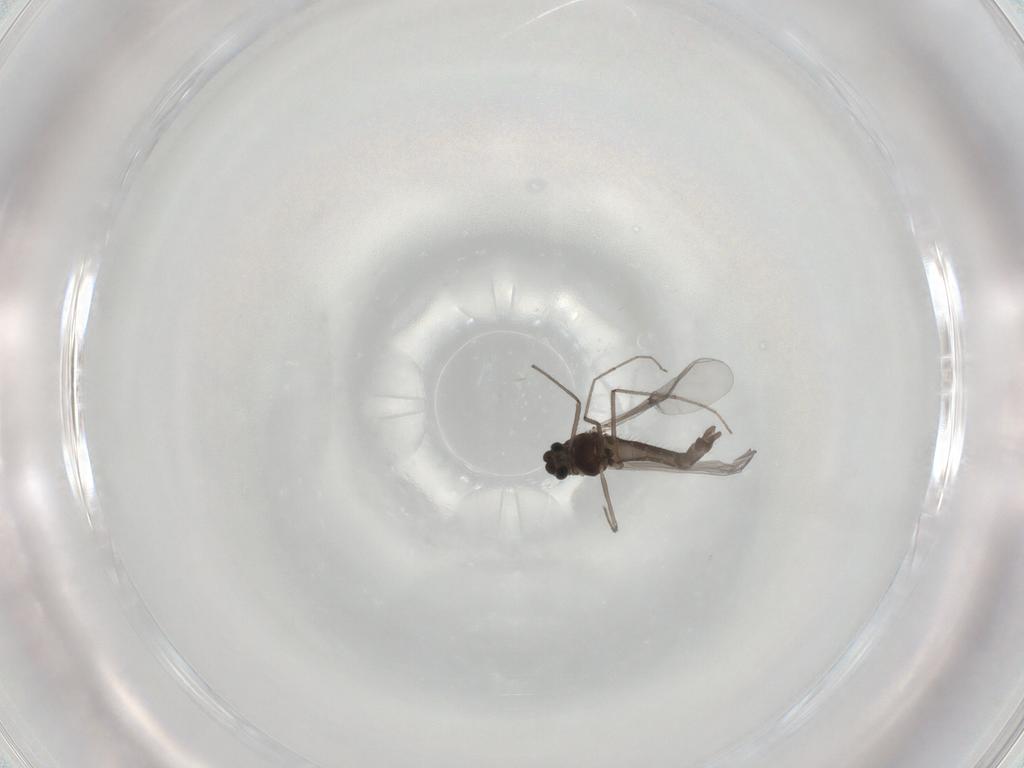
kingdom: Animalia
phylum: Arthropoda
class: Insecta
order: Diptera
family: Chironomidae
